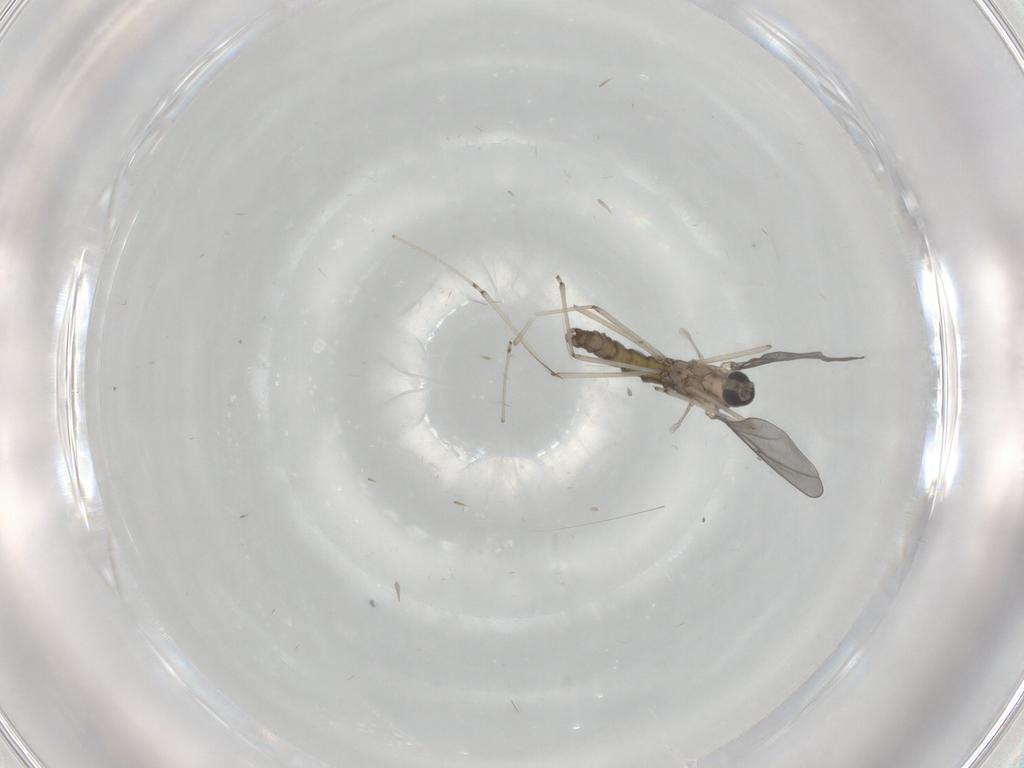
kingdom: Animalia
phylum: Arthropoda
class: Insecta
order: Diptera
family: Cecidomyiidae
